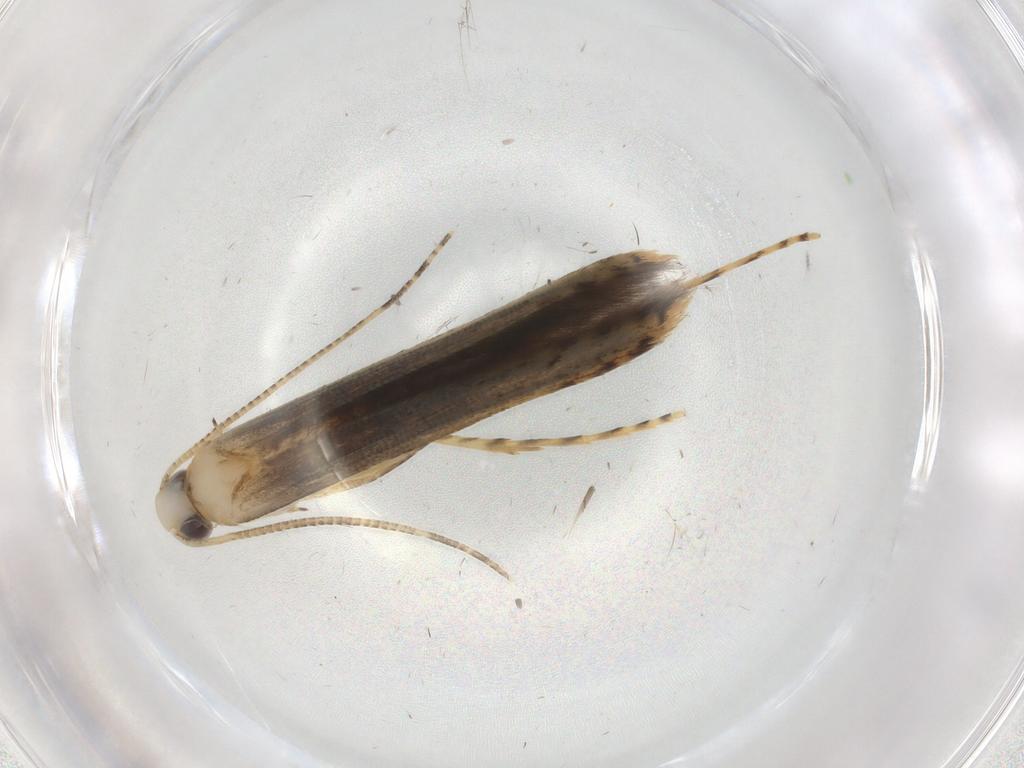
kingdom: Animalia
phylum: Arthropoda
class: Insecta
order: Lepidoptera
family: Batrachedridae
